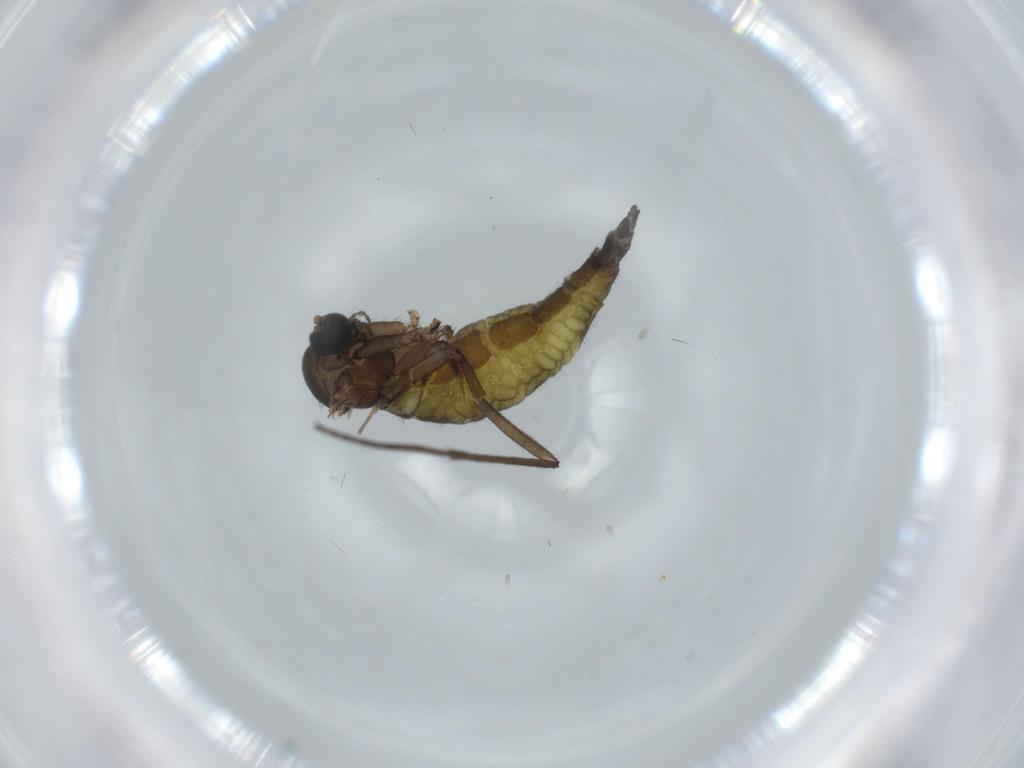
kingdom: Animalia
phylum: Arthropoda
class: Insecta
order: Diptera
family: Sciaridae
